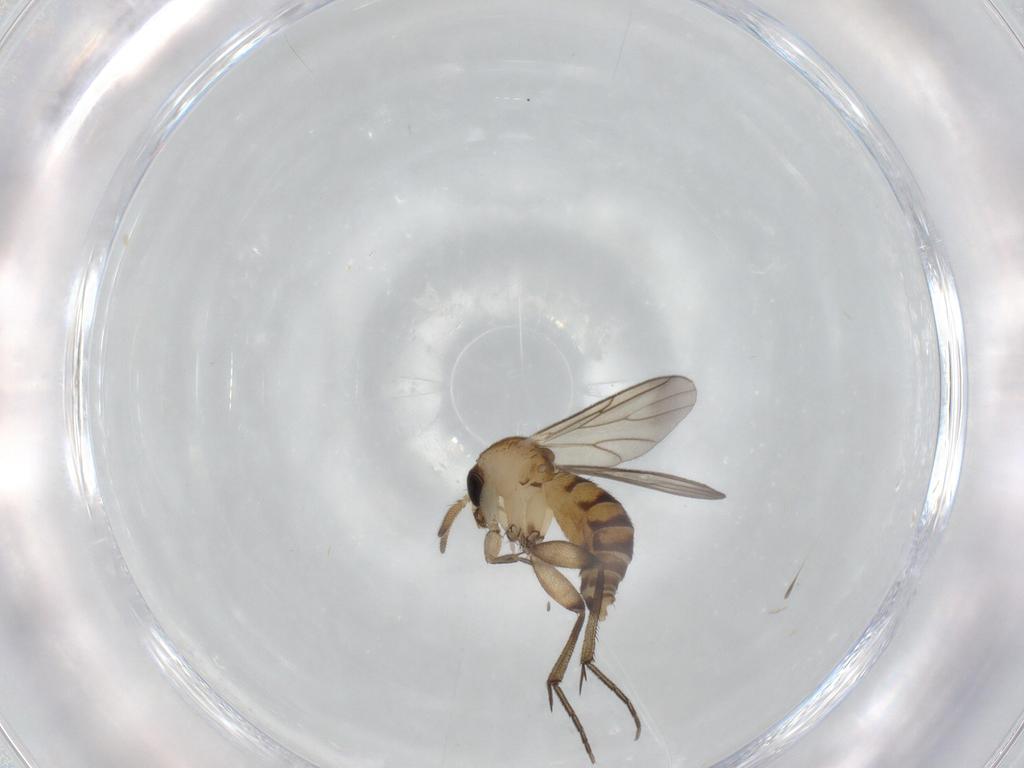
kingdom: Animalia
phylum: Arthropoda
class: Insecta
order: Diptera
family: Mycetophilidae
